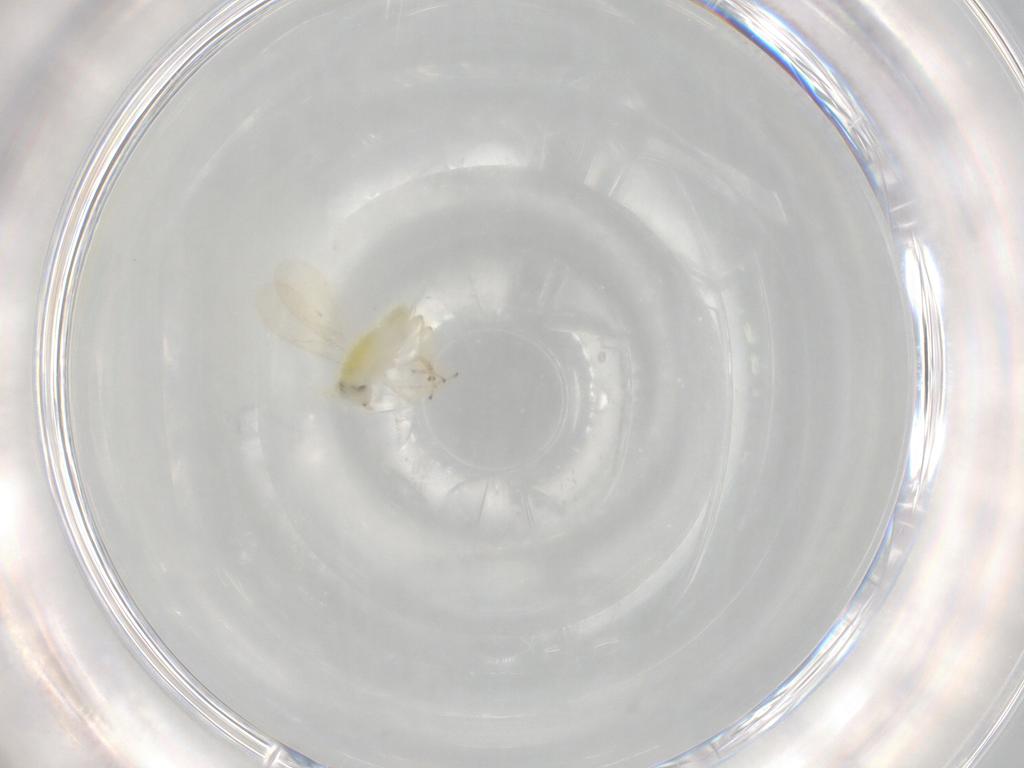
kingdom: Animalia
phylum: Arthropoda
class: Insecta
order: Hymenoptera
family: Aphelinidae
